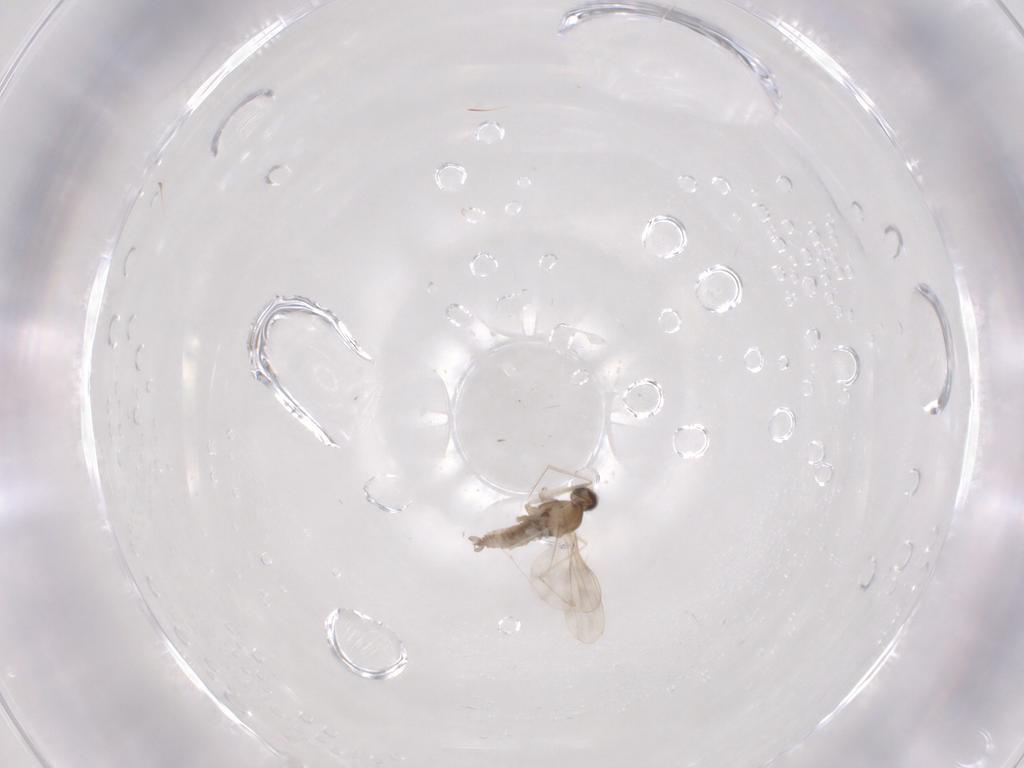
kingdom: Animalia
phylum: Arthropoda
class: Insecta
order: Diptera
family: Cecidomyiidae
